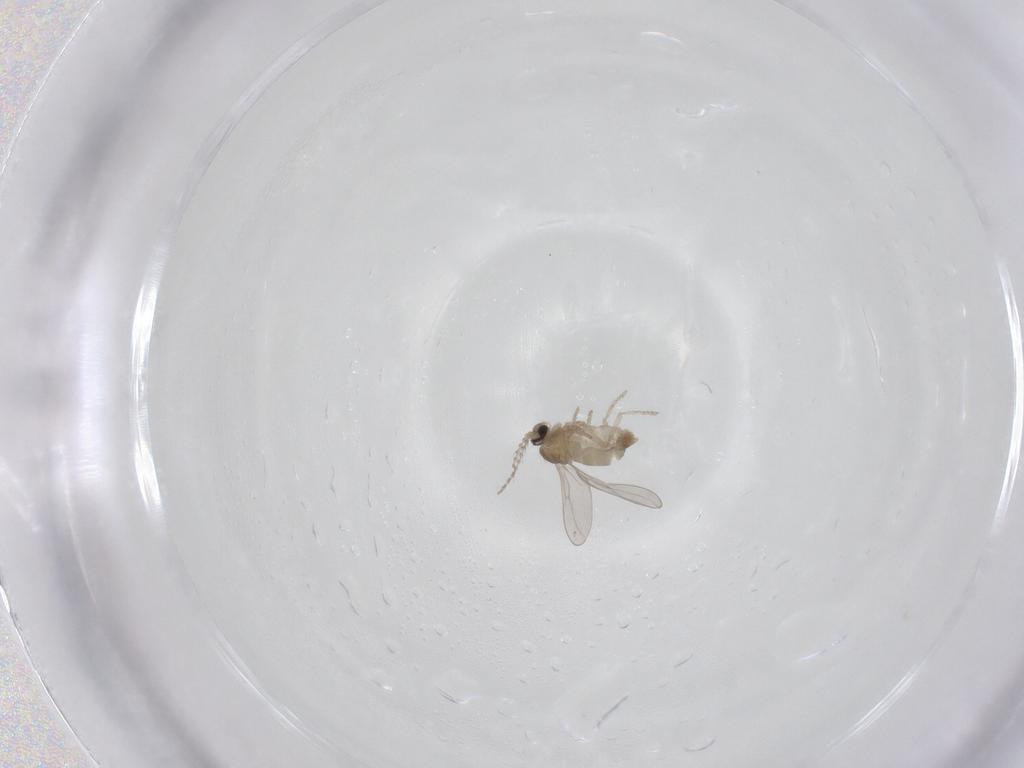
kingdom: Animalia
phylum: Arthropoda
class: Insecta
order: Diptera
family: Cecidomyiidae
